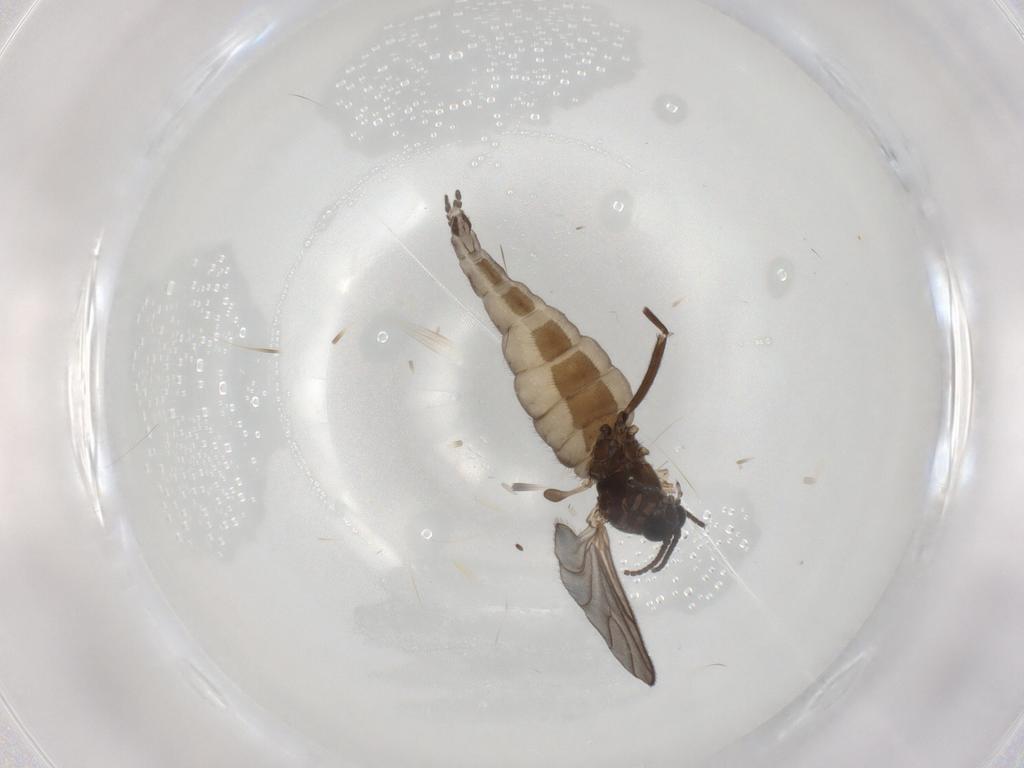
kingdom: Animalia
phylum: Arthropoda
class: Insecta
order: Diptera
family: Sciaridae
